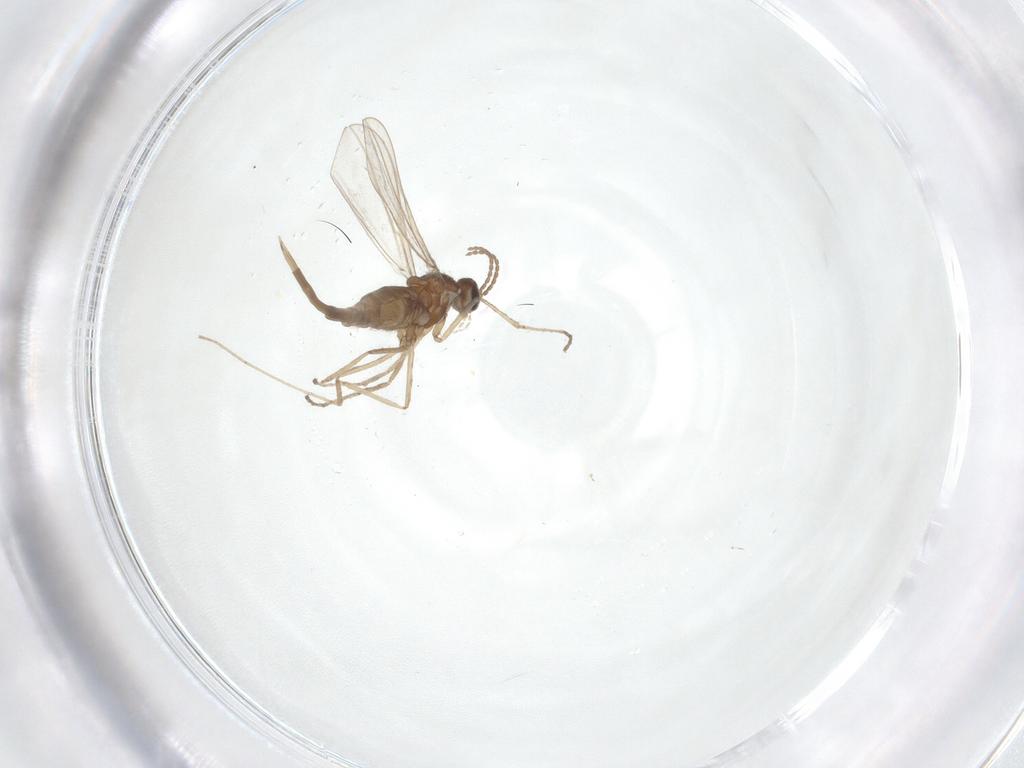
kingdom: Animalia
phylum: Arthropoda
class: Insecta
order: Diptera
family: Cecidomyiidae
